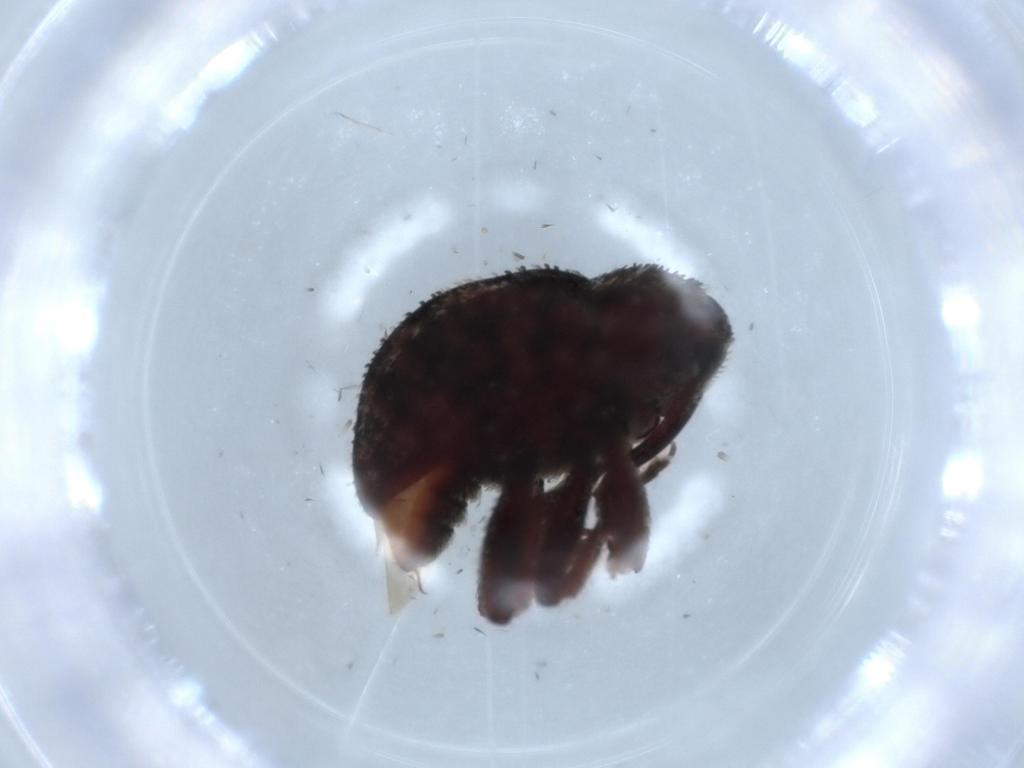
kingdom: Animalia
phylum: Arthropoda
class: Insecta
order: Coleoptera
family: Curculionidae
